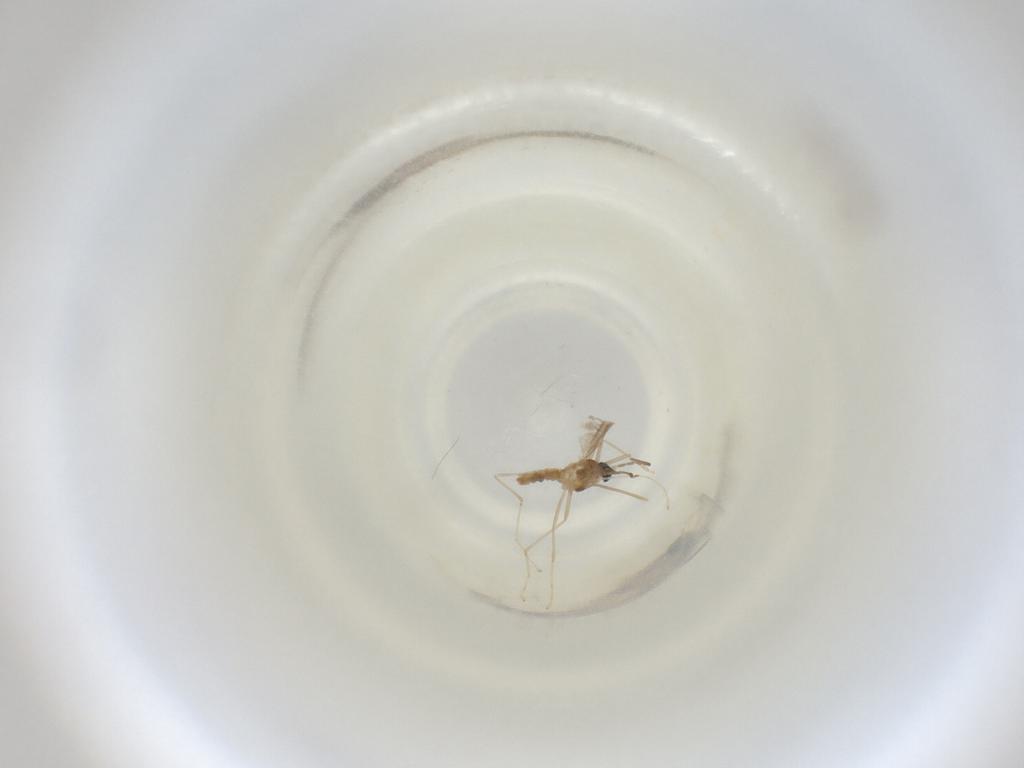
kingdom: Animalia
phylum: Arthropoda
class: Insecta
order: Diptera
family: Cecidomyiidae
